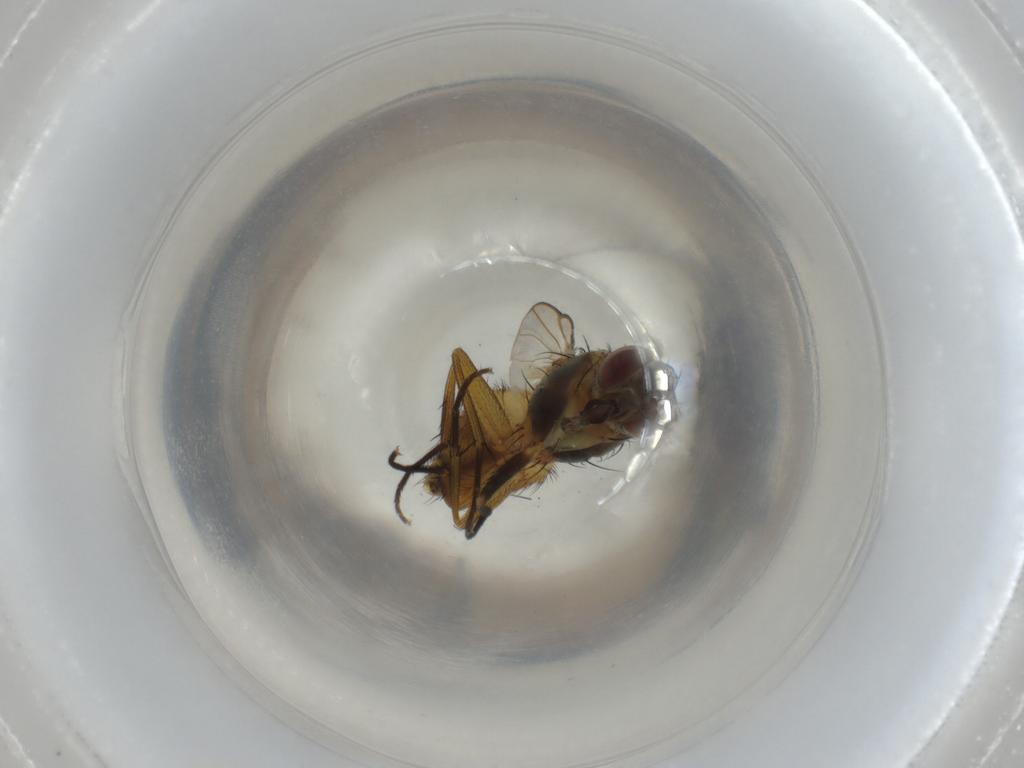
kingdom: Animalia
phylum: Arthropoda
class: Insecta
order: Diptera
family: Muscidae
